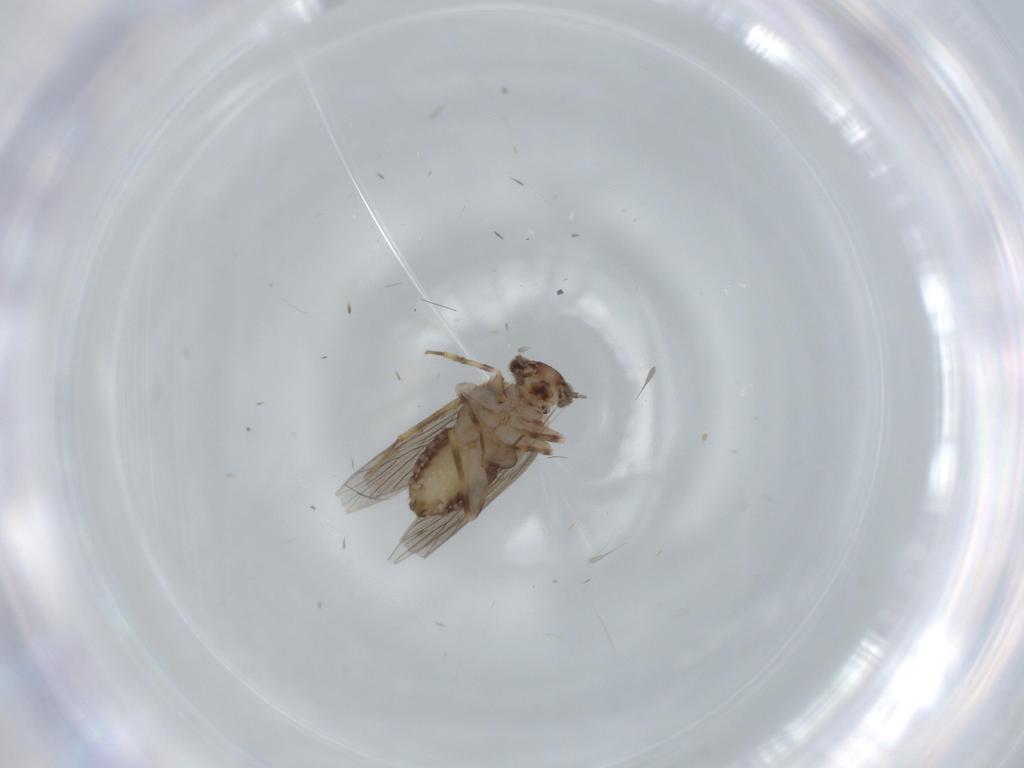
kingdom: Animalia
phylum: Arthropoda
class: Insecta
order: Psocodea
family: Lepidopsocidae
